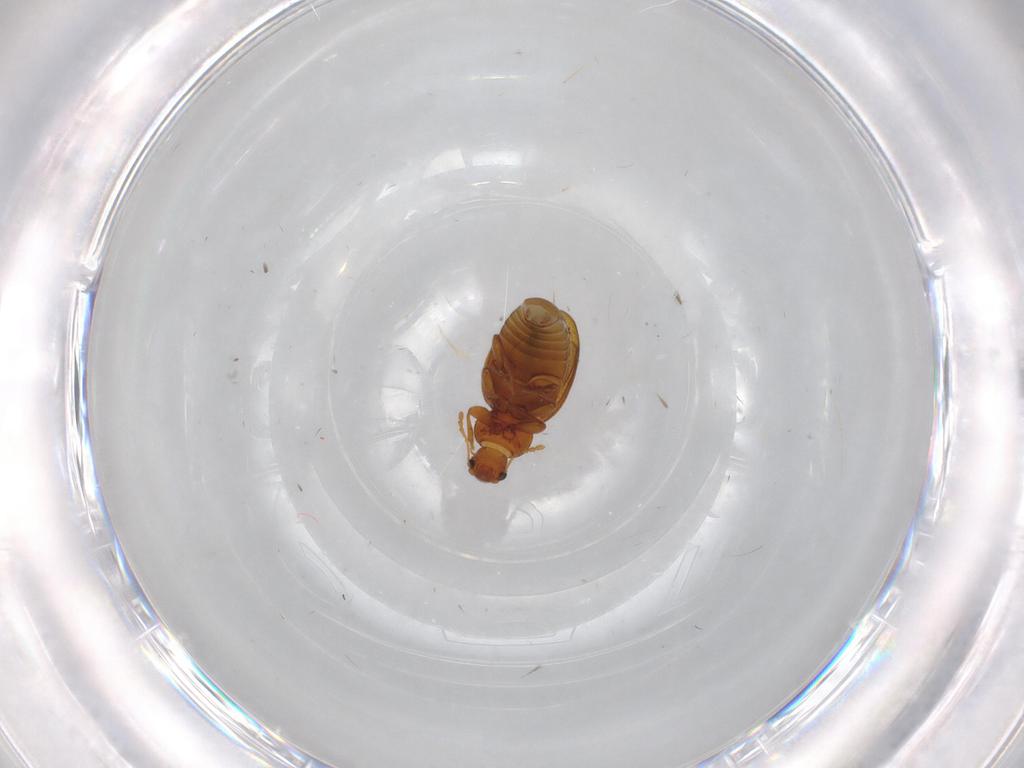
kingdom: Animalia
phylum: Arthropoda
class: Insecta
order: Coleoptera
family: Latridiidae
